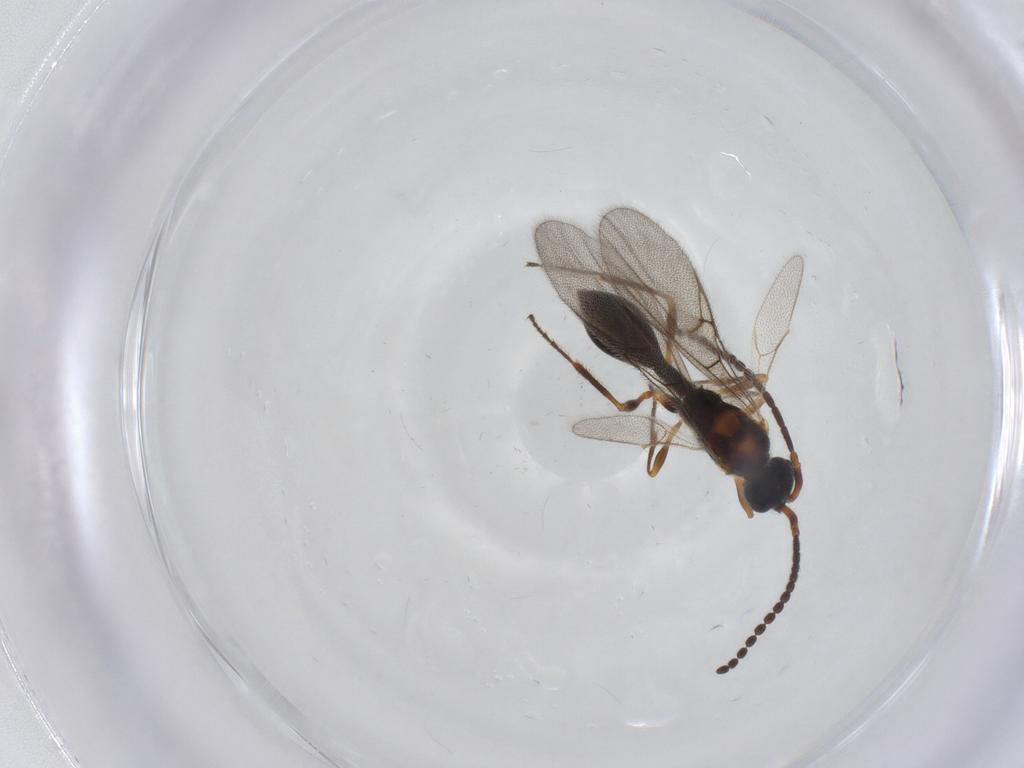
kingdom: Animalia
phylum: Arthropoda
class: Insecta
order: Hymenoptera
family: Diapriidae
